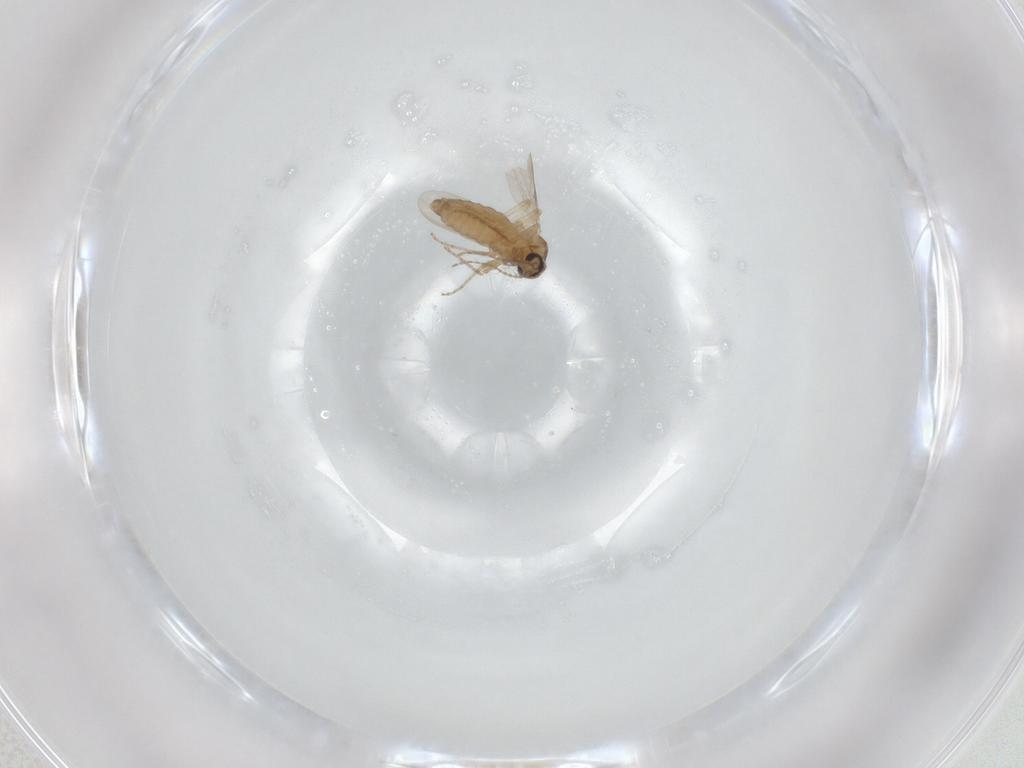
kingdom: Animalia
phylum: Arthropoda
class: Insecta
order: Diptera
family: Ceratopogonidae
